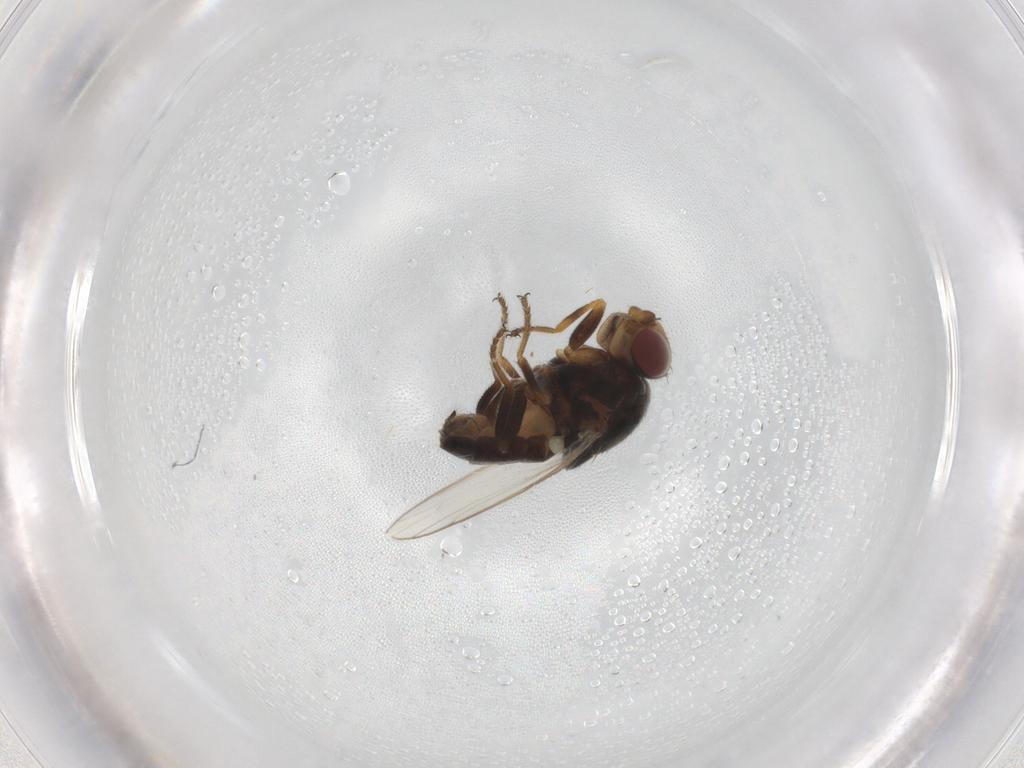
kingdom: Animalia
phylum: Arthropoda
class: Insecta
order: Diptera
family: Chloropidae
